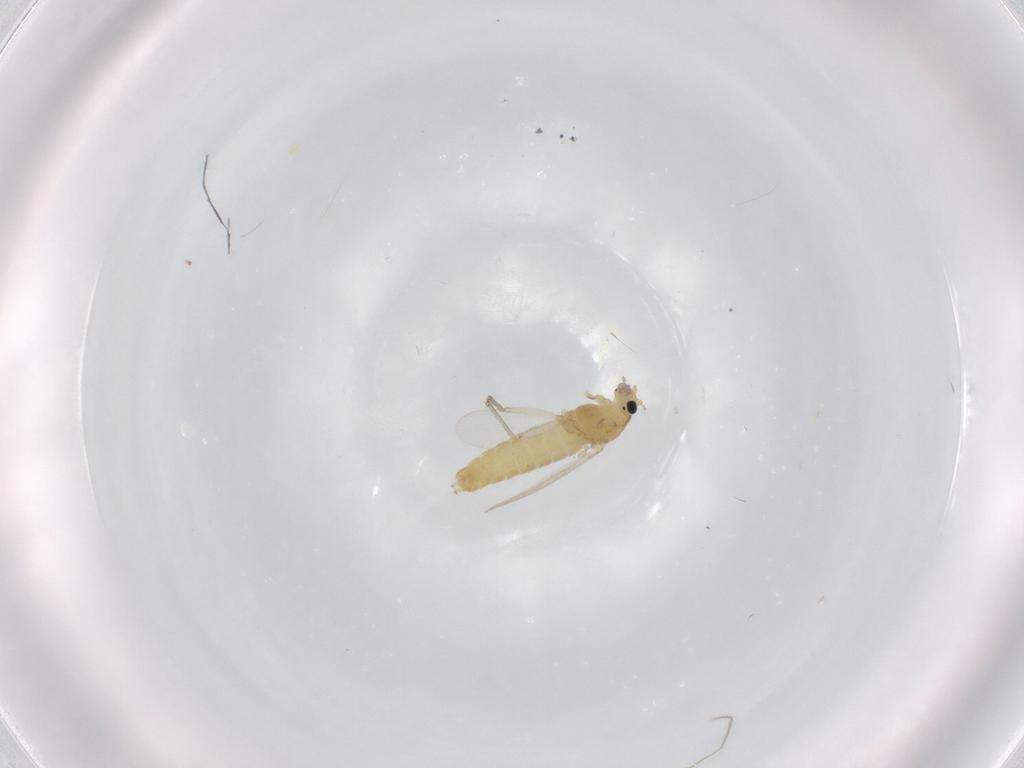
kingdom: Animalia
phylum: Arthropoda
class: Insecta
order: Diptera
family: Chironomidae
